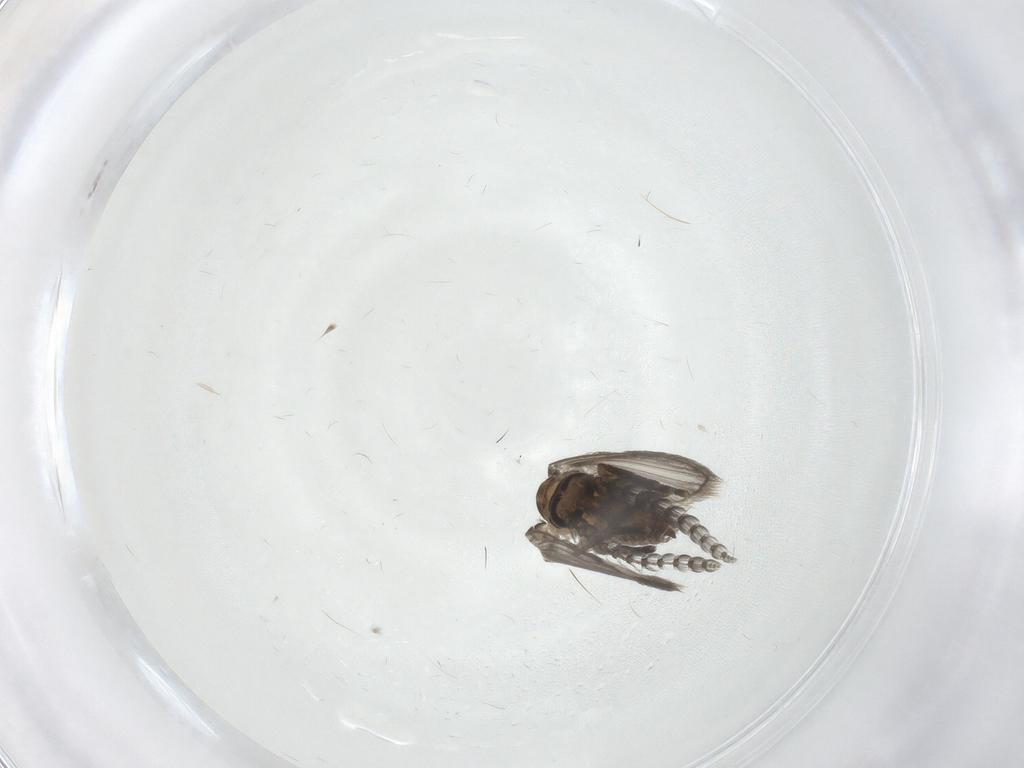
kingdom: Animalia
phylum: Arthropoda
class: Insecta
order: Diptera
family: Psychodidae
